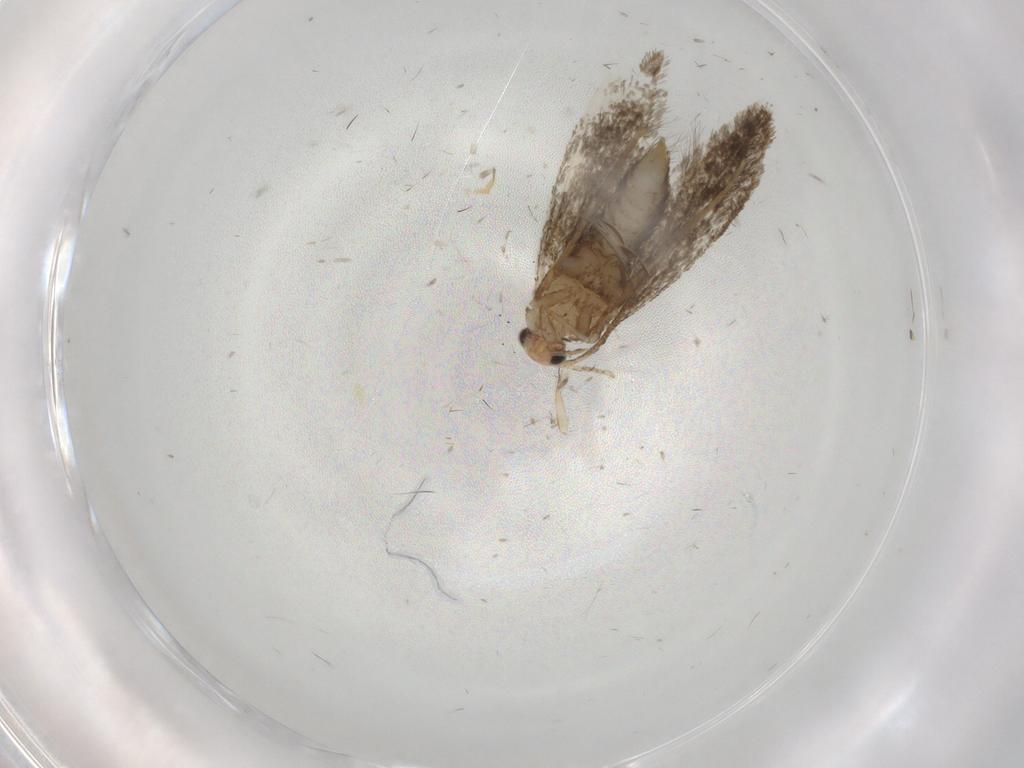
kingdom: Animalia
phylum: Arthropoda
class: Insecta
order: Lepidoptera
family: Tineidae
